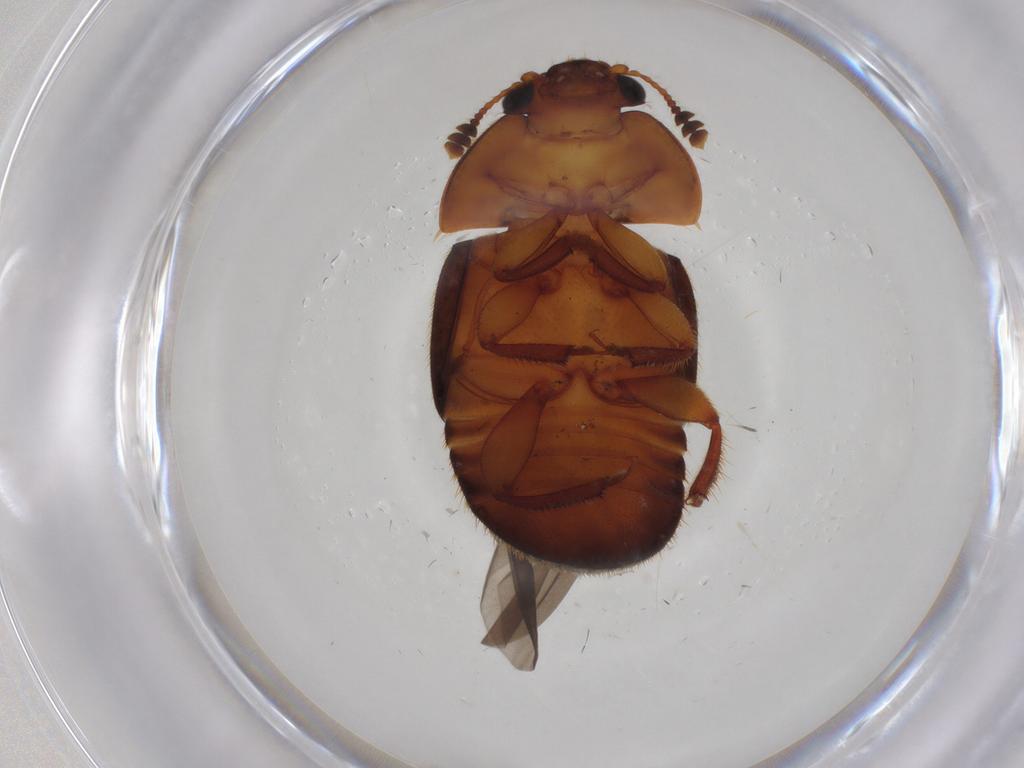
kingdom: Animalia
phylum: Arthropoda
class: Insecta
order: Coleoptera
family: Nitidulidae
